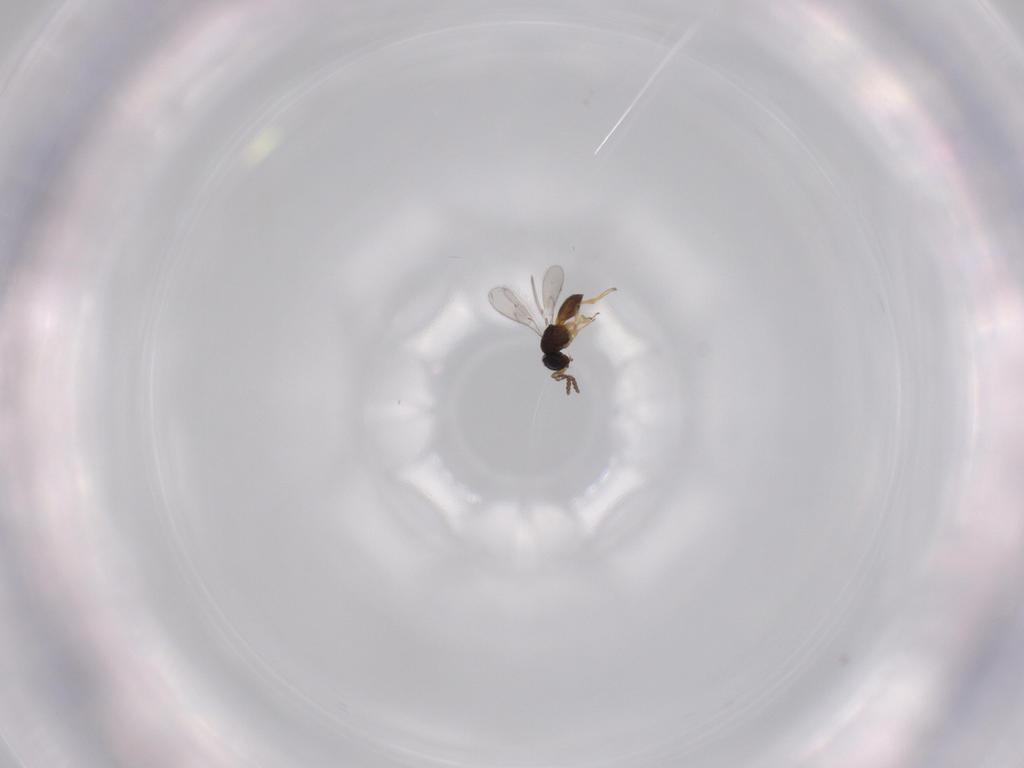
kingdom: Animalia
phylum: Arthropoda
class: Insecta
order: Hymenoptera
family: Scelionidae
